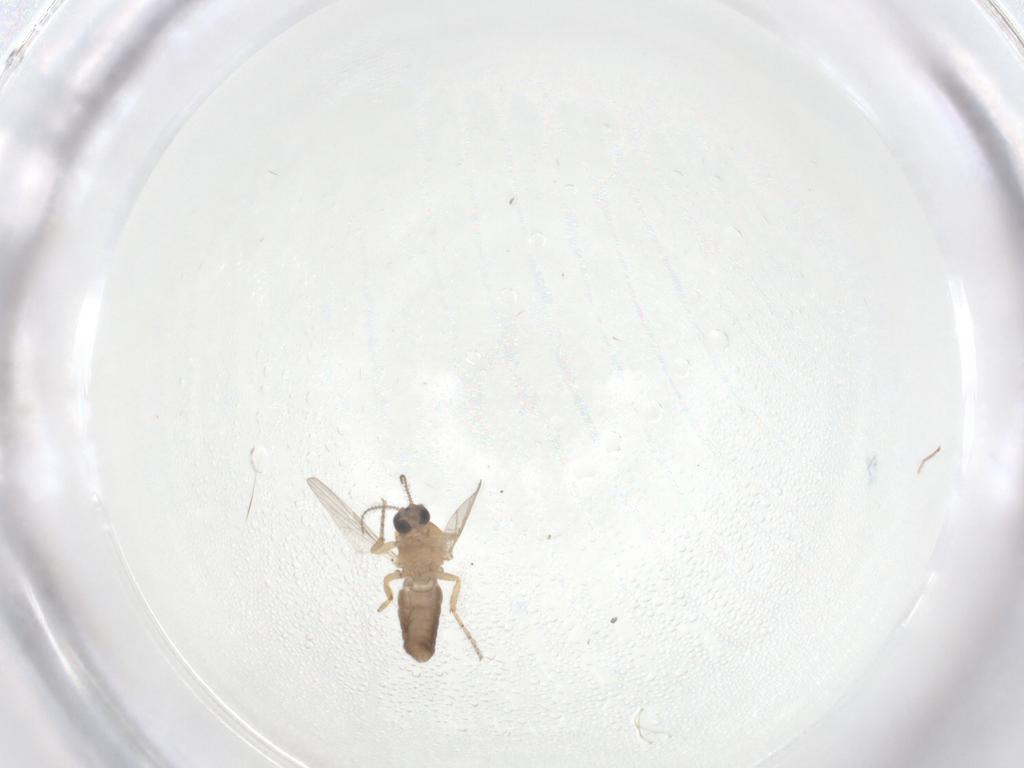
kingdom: Animalia
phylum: Arthropoda
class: Insecta
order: Diptera
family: Ceratopogonidae
